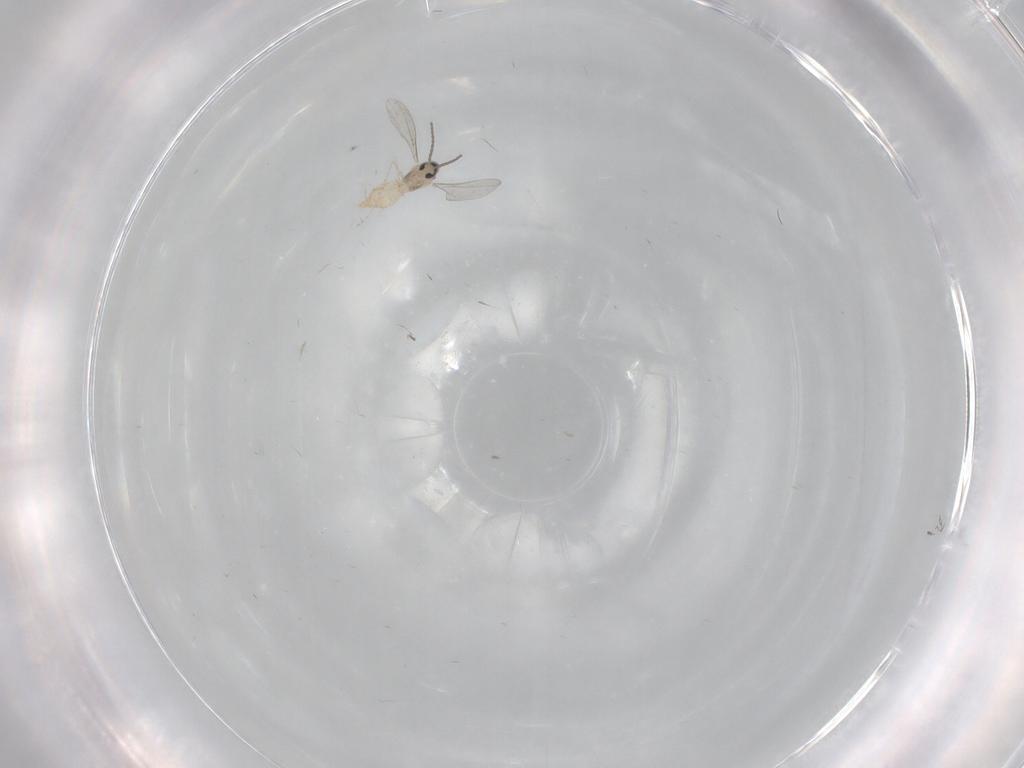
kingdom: Animalia
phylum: Arthropoda
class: Insecta
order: Diptera
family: Cecidomyiidae
